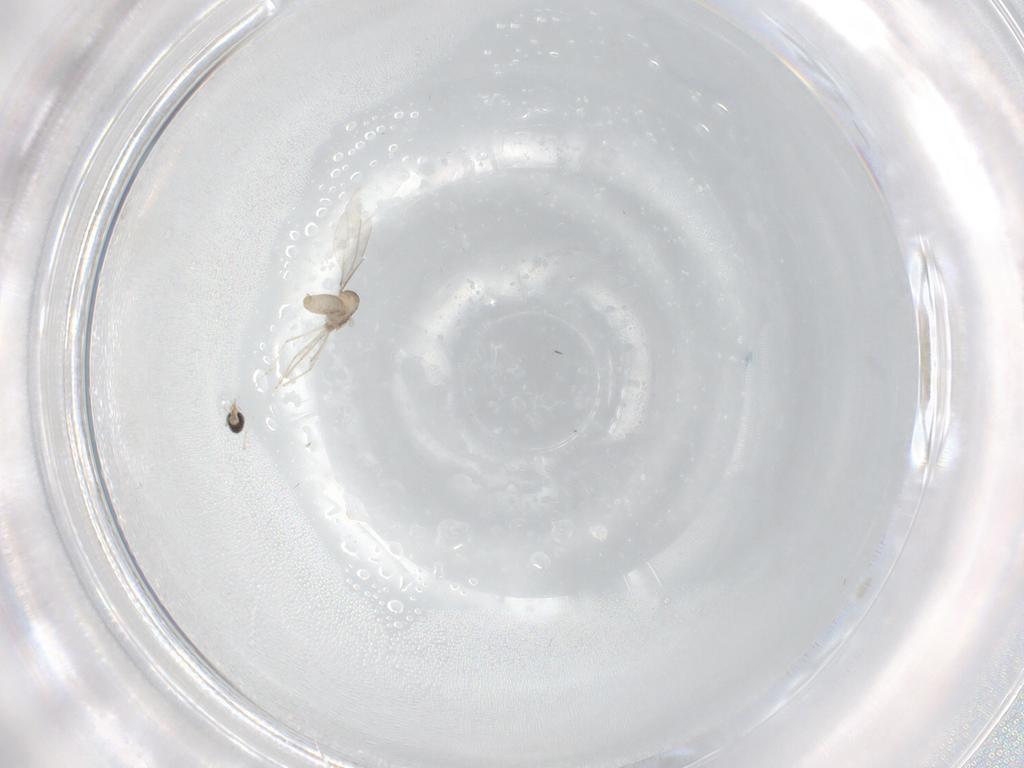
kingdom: Animalia
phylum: Arthropoda
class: Insecta
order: Diptera
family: Cecidomyiidae
